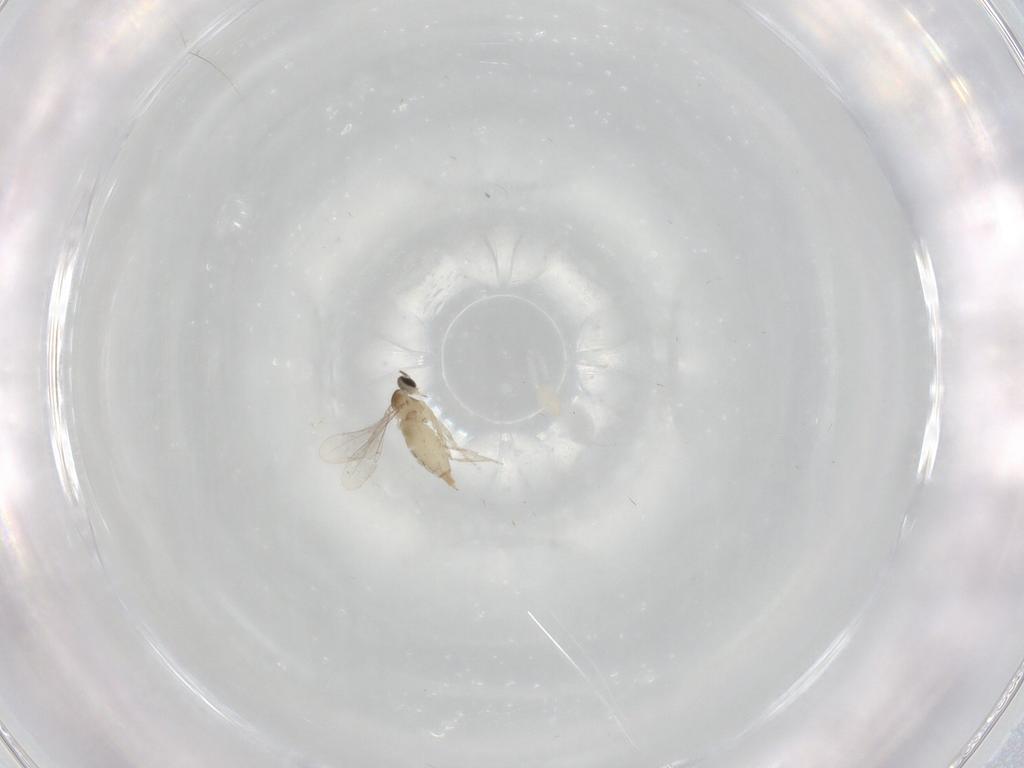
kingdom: Animalia
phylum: Arthropoda
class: Insecta
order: Diptera
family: Cecidomyiidae
